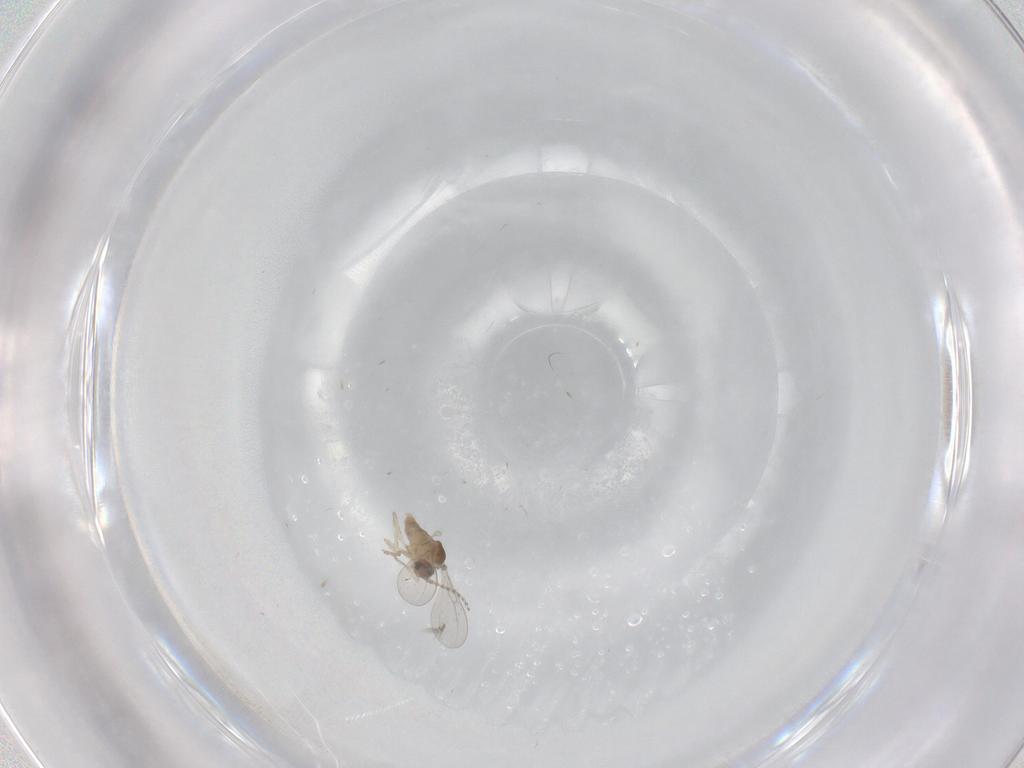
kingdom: Animalia
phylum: Arthropoda
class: Insecta
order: Diptera
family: Cecidomyiidae
